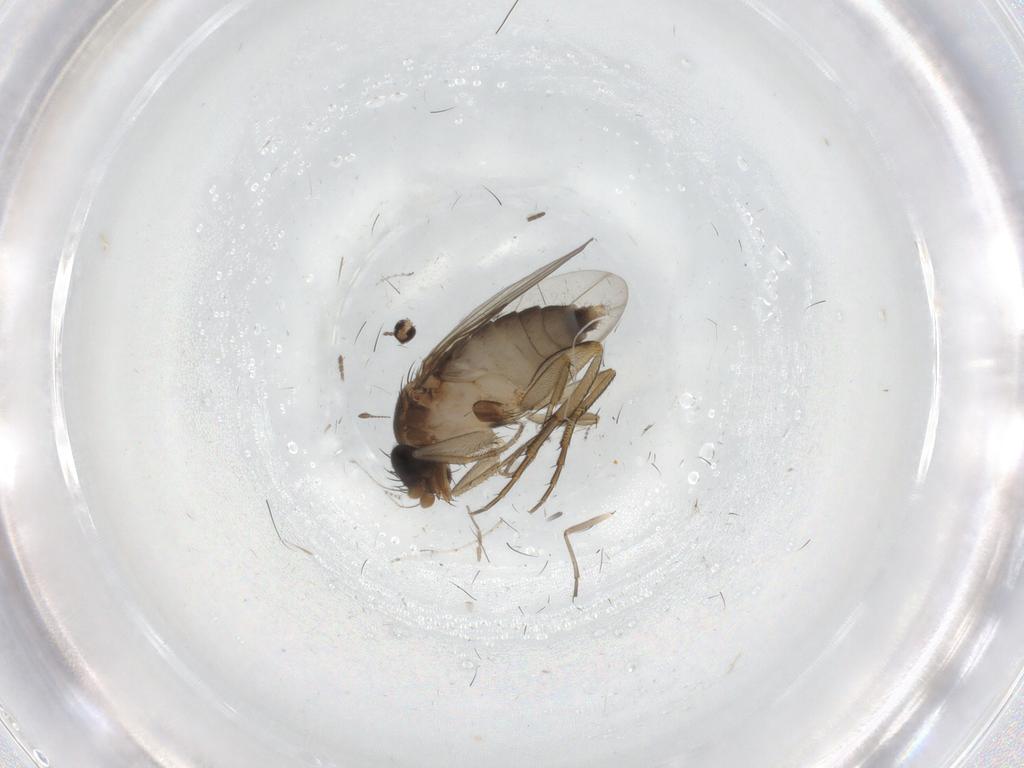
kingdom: Animalia
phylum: Arthropoda
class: Insecta
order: Diptera
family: Phoridae
